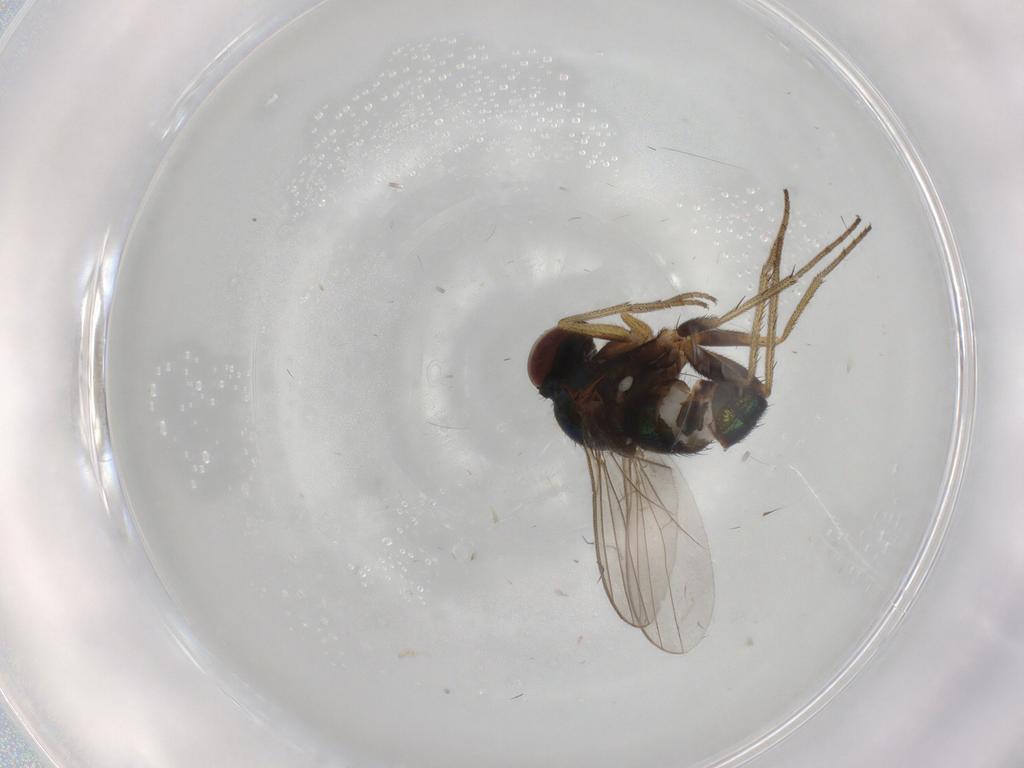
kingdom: Animalia
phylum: Arthropoda
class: Insecta
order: Diptera
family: Dolichopodidae
